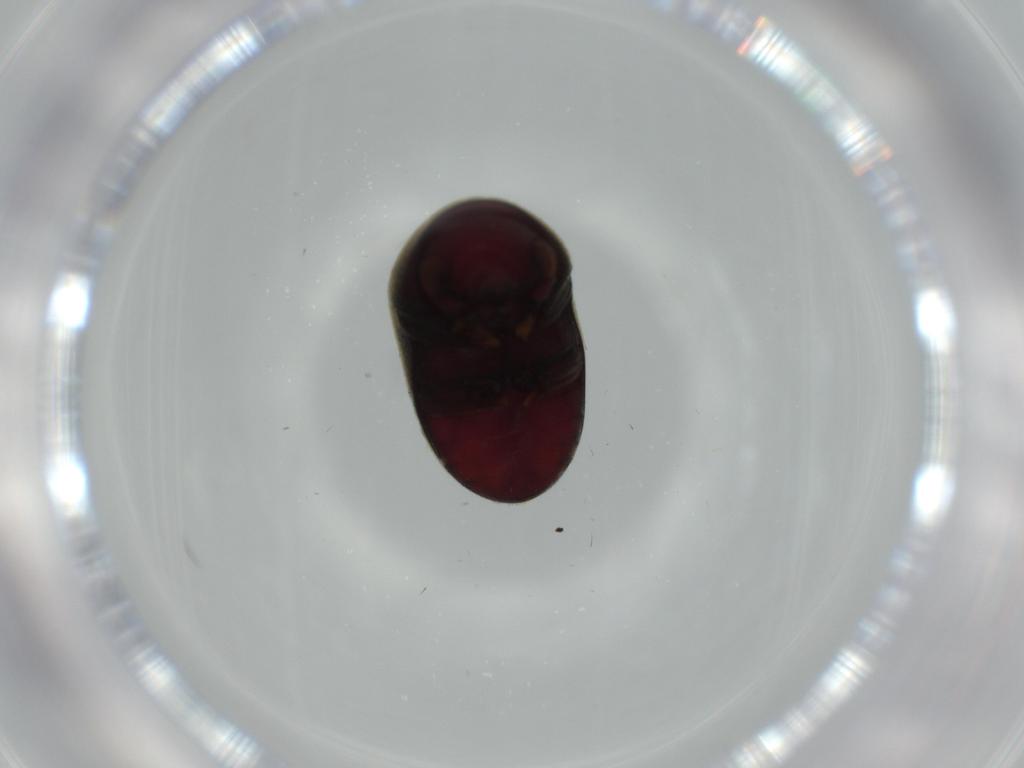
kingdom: Animalia
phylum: Arthropoda
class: Insecta
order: Coleoptera
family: Ptinidae
